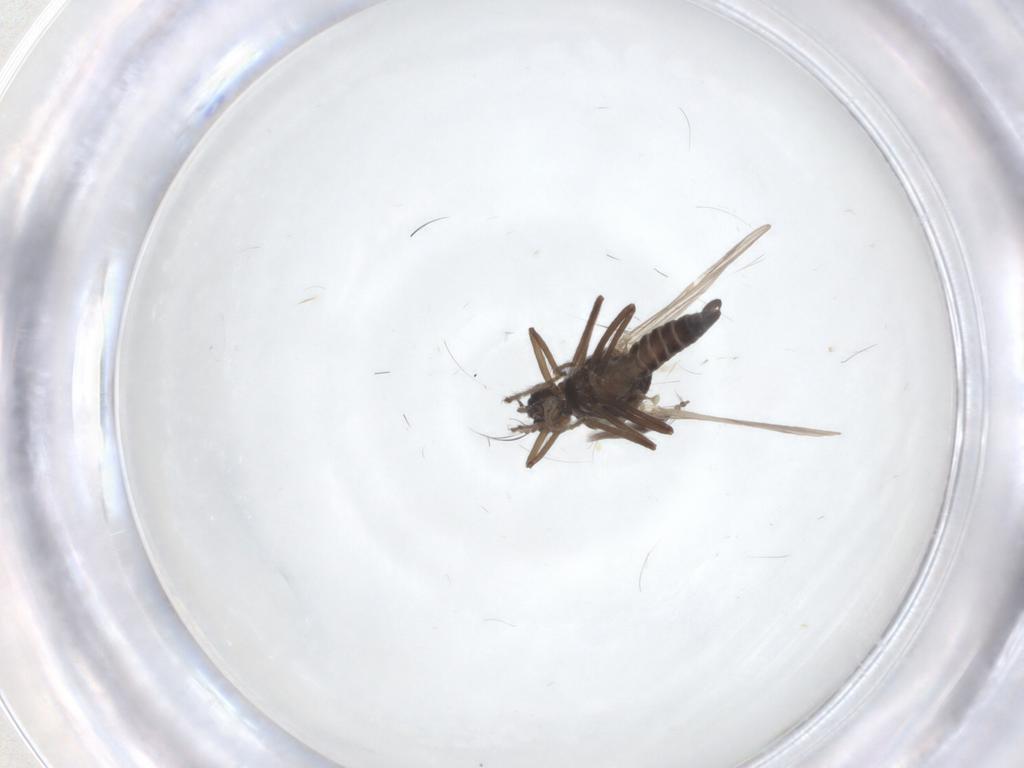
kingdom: Animalia
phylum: Arthropoda
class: Insecta
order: Diptera
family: Ceratopogonidae
